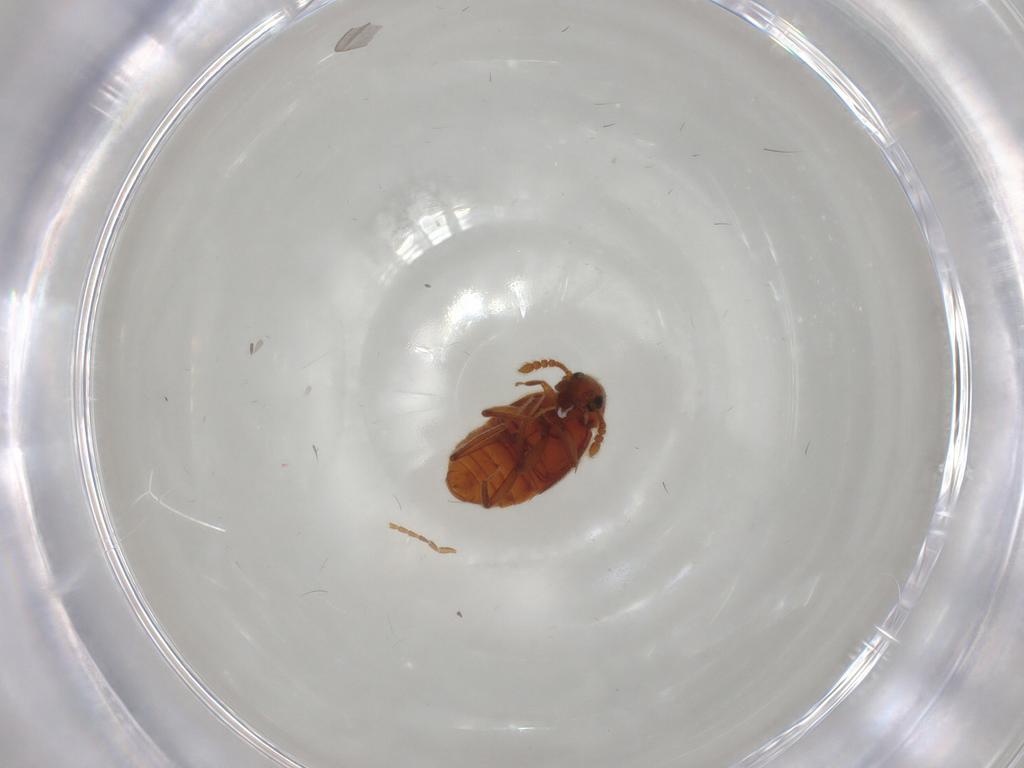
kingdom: Animalia
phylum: Arthropoda
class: Insecta
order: Coleoptera
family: Staphylinidae
